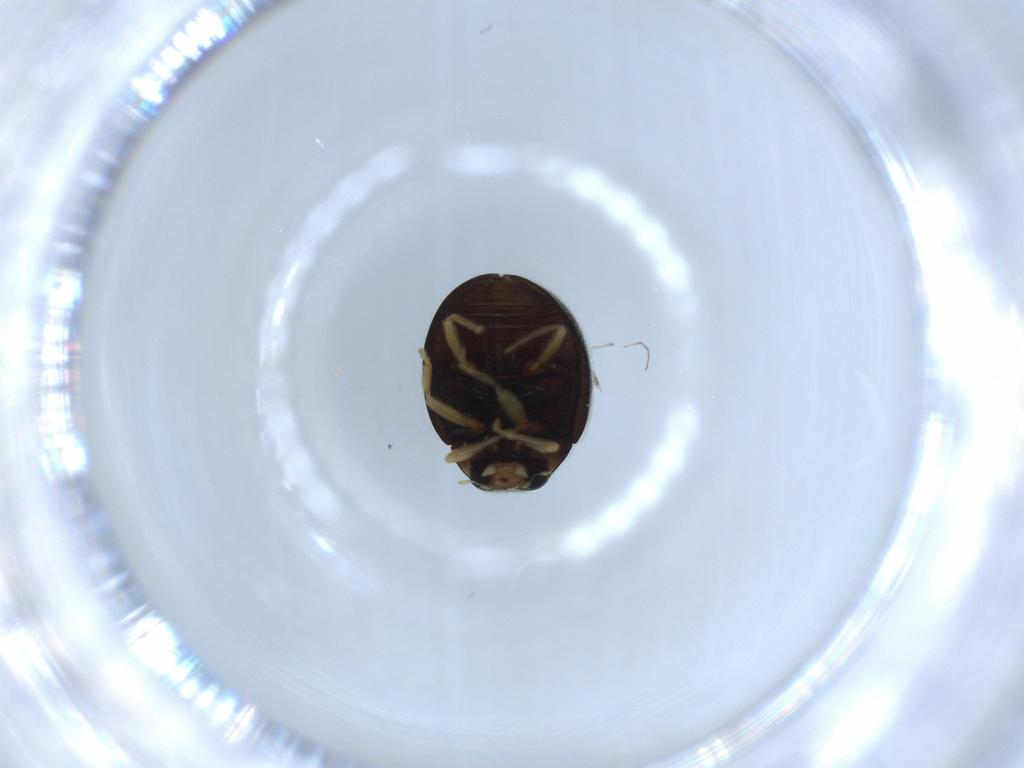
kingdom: Animalia
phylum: Arthropoda
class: Insecta
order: Coleoptera
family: Coccinellidae
